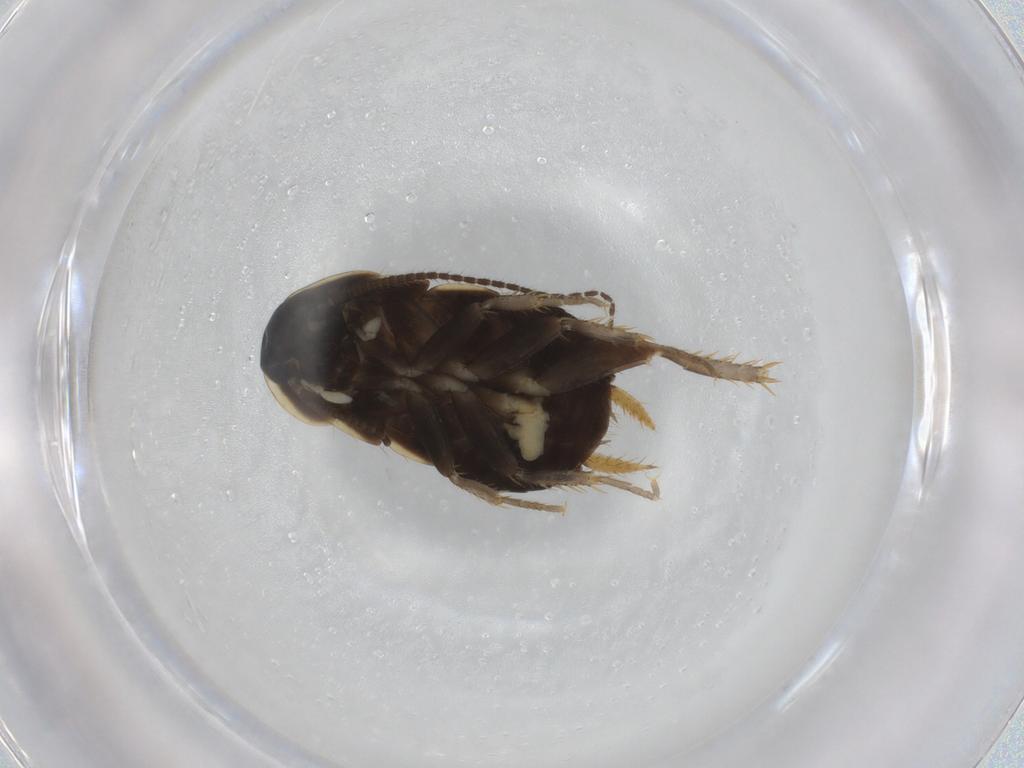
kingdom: Animalia
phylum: Arthropoda
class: Insecta
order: Blattodea
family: Ectobiidae
